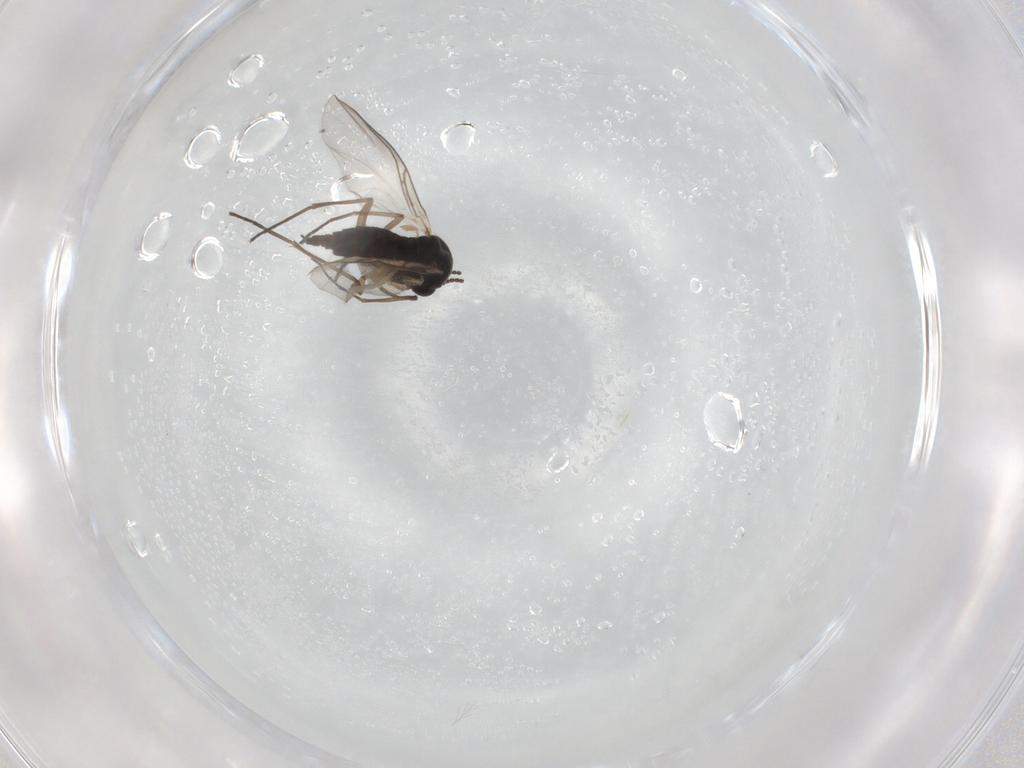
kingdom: Animalia
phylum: Arthropoda
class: Insecta
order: Diptera
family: Sciaridae
